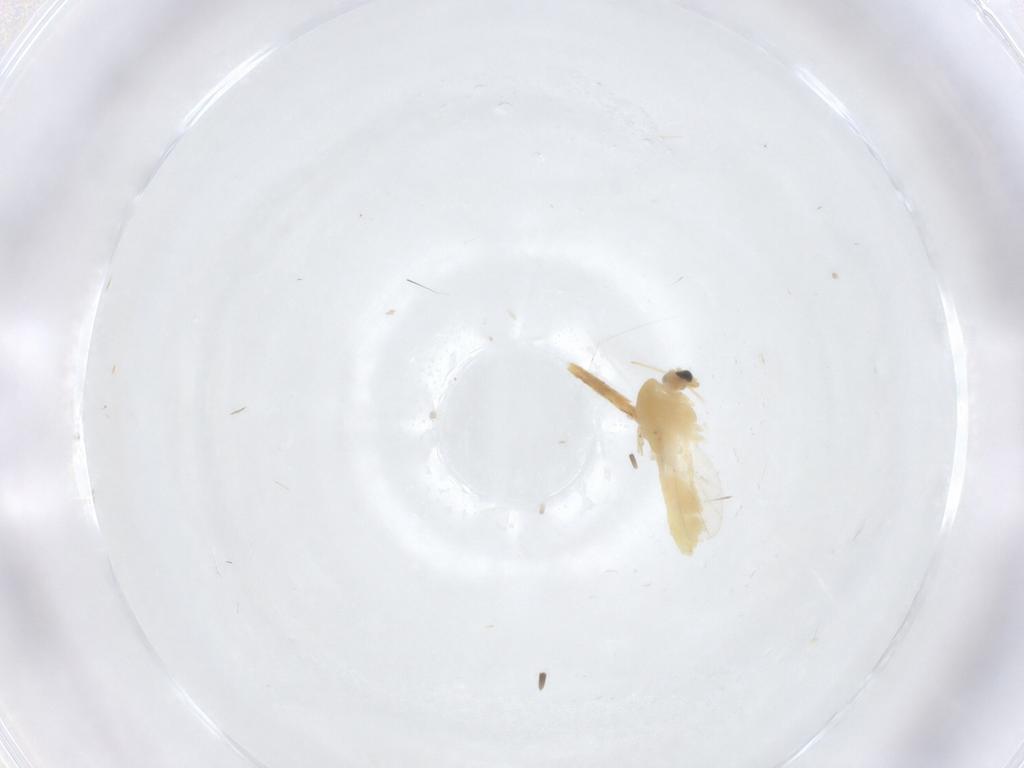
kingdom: Animalia
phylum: Arthropoda
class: Insecta
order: Diptera
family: Chironomidae
